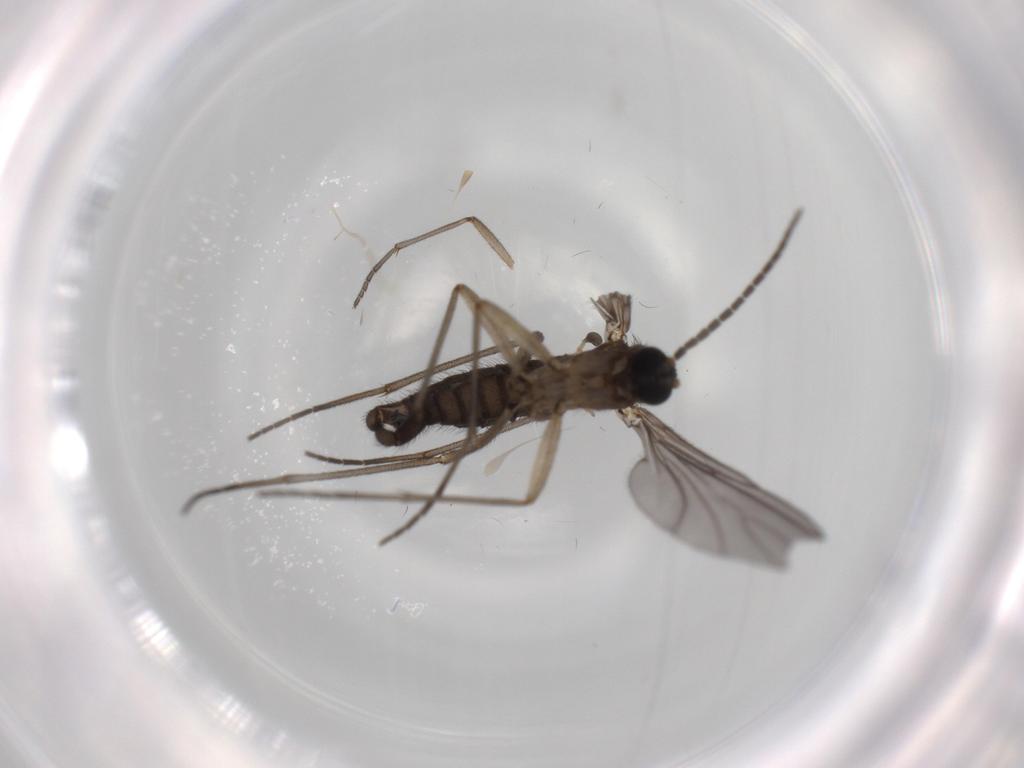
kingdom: Animalia
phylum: Arthropoda
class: Insecta
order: Diptera
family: Sciaridae
